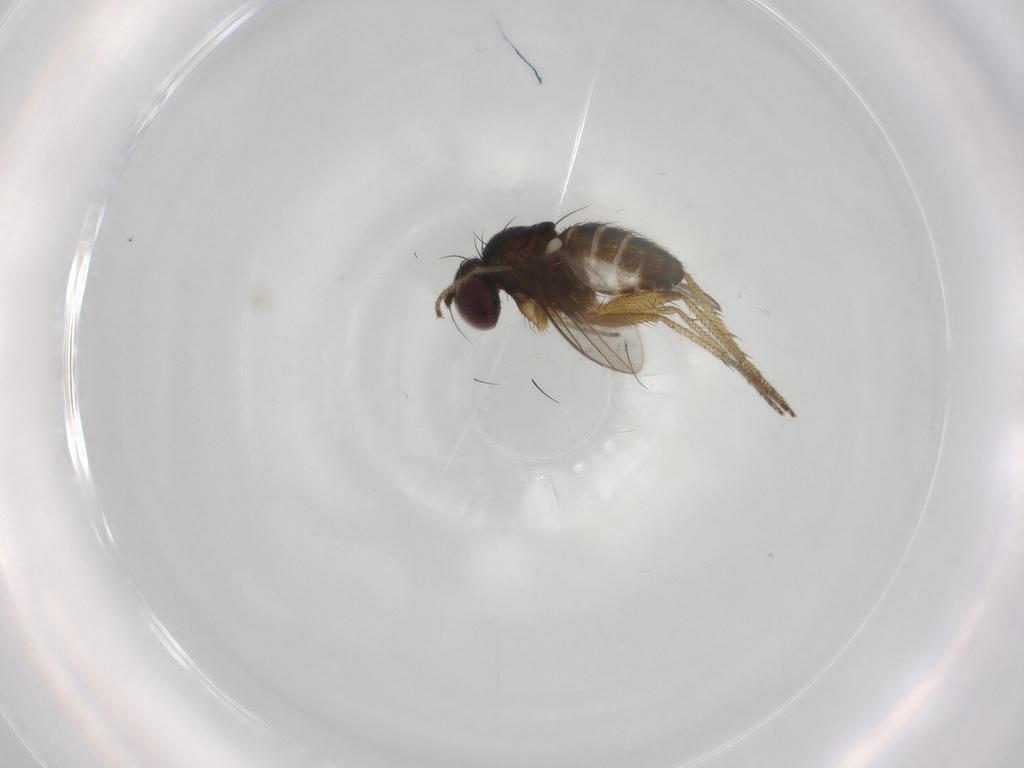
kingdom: Animalia
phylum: Arthropoda
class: Insecta
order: Diptera
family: Dolichopodidae
